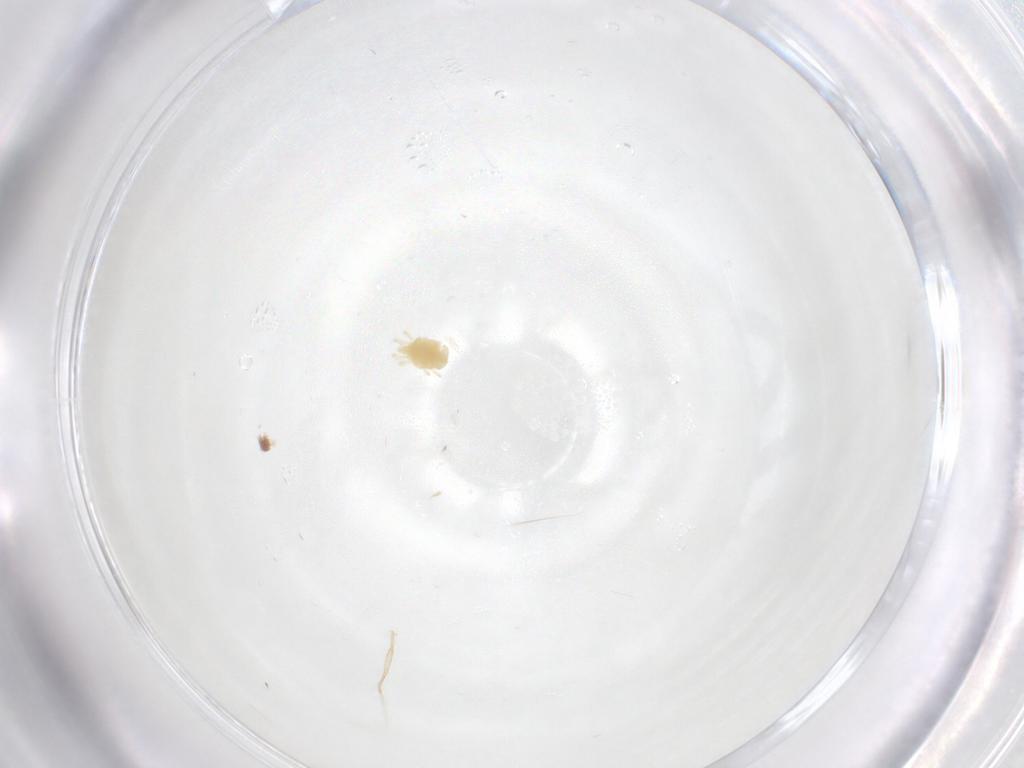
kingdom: Animalia
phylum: Arthropoda
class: Arachnida
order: Trombidiformes
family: Tetranychidae
